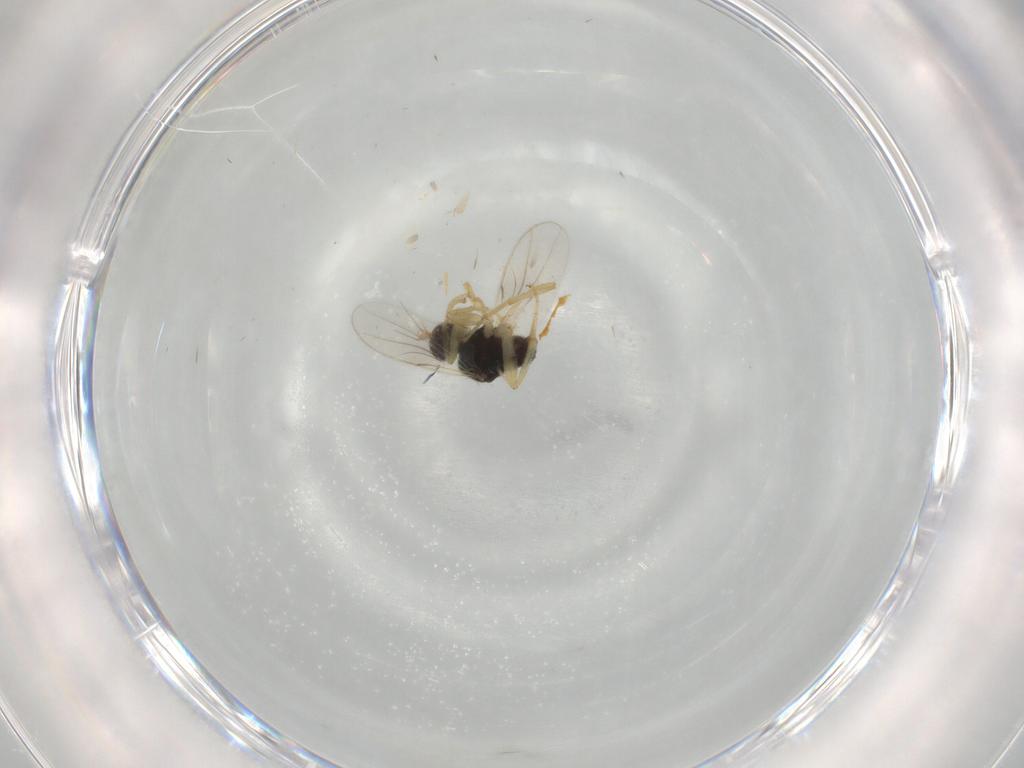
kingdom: Animalia
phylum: Arthropoda
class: Insecta
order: Diptera
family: Hybotidae
